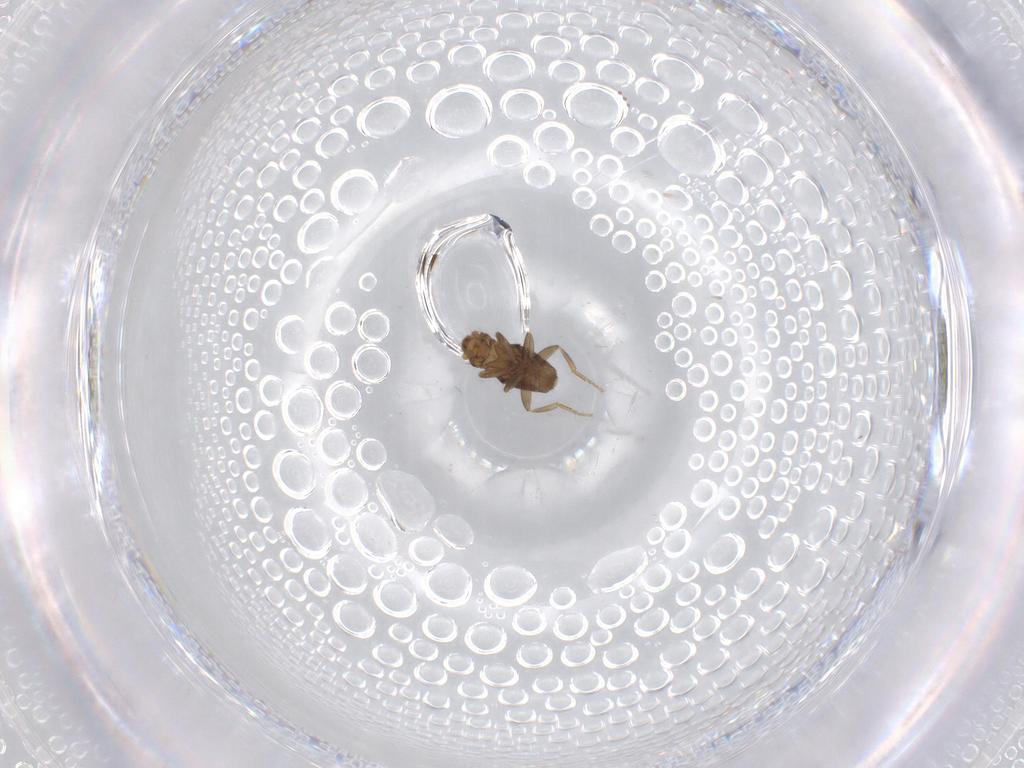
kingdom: Animalia
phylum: Arthropoda
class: Insecta
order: Diptera
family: Phoridae
